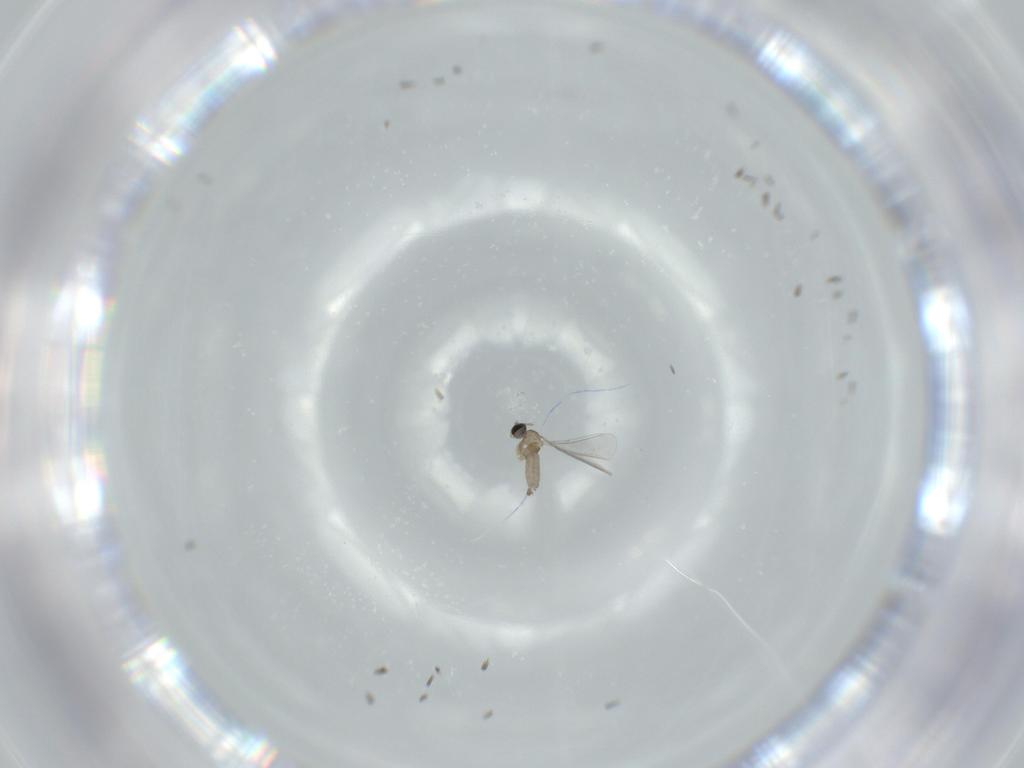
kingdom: Animalia
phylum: Arthropoda
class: Insecta
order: Diptera
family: Cecidomyiidae
